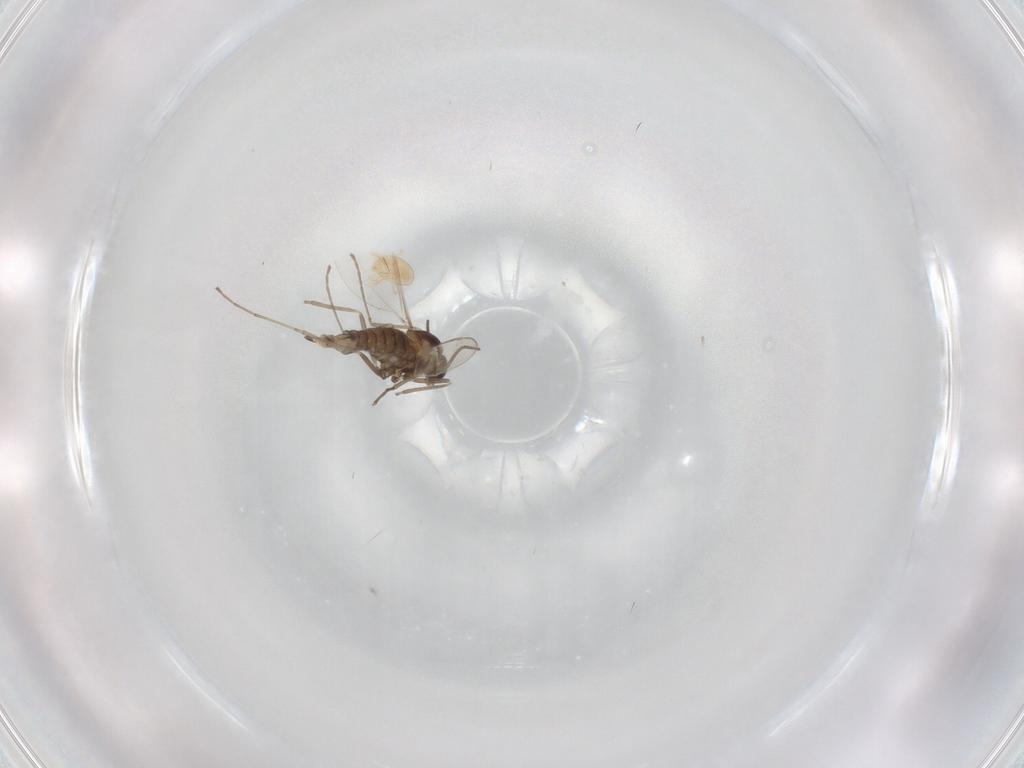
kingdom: Animalia
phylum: Arthropoda
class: Insecta
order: Diptera
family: Cecidomyiidae
